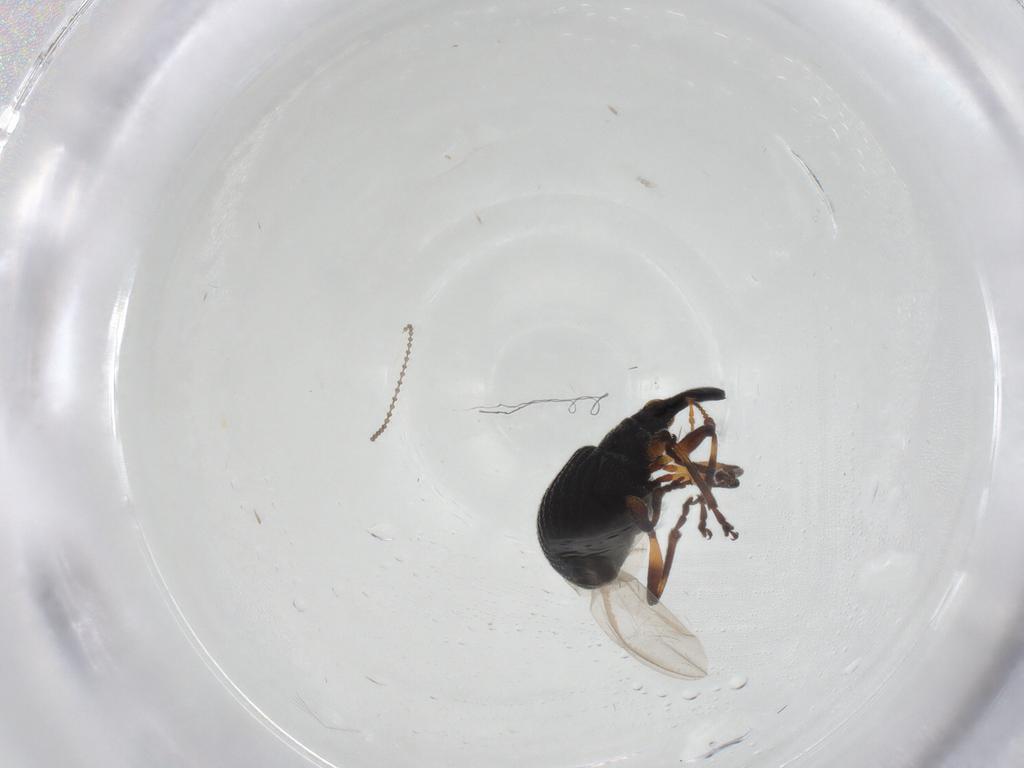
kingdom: Animalia
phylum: Arthropoda
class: Insecta
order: Coleoptera
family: Brentidae
